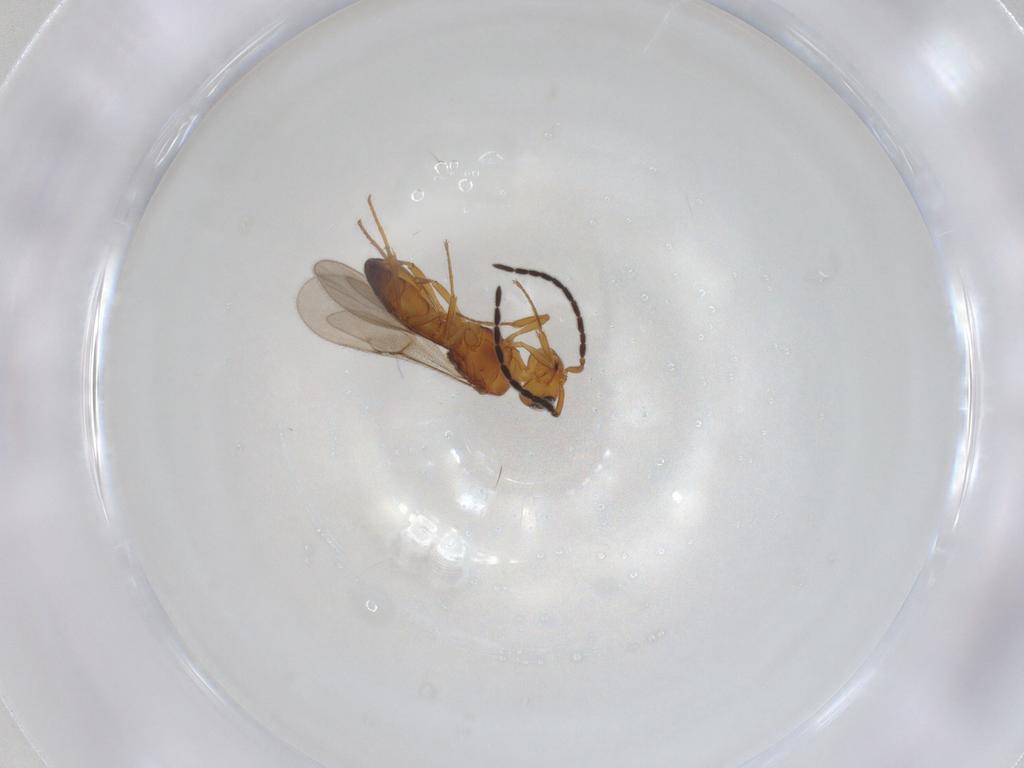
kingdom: Animalia
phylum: Arthropoda
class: Insecta
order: Hymenoptera
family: Scelionidae
